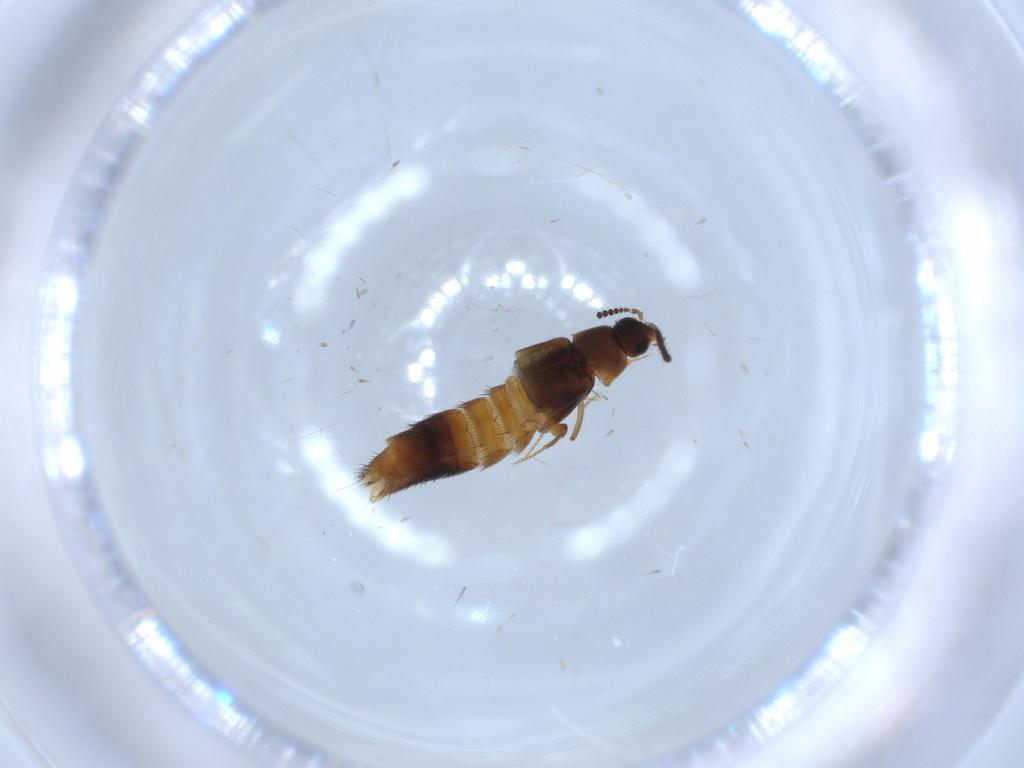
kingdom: Animalia
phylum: Arthropoda
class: Insecta
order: Coleoptera
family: Staphylinidae
